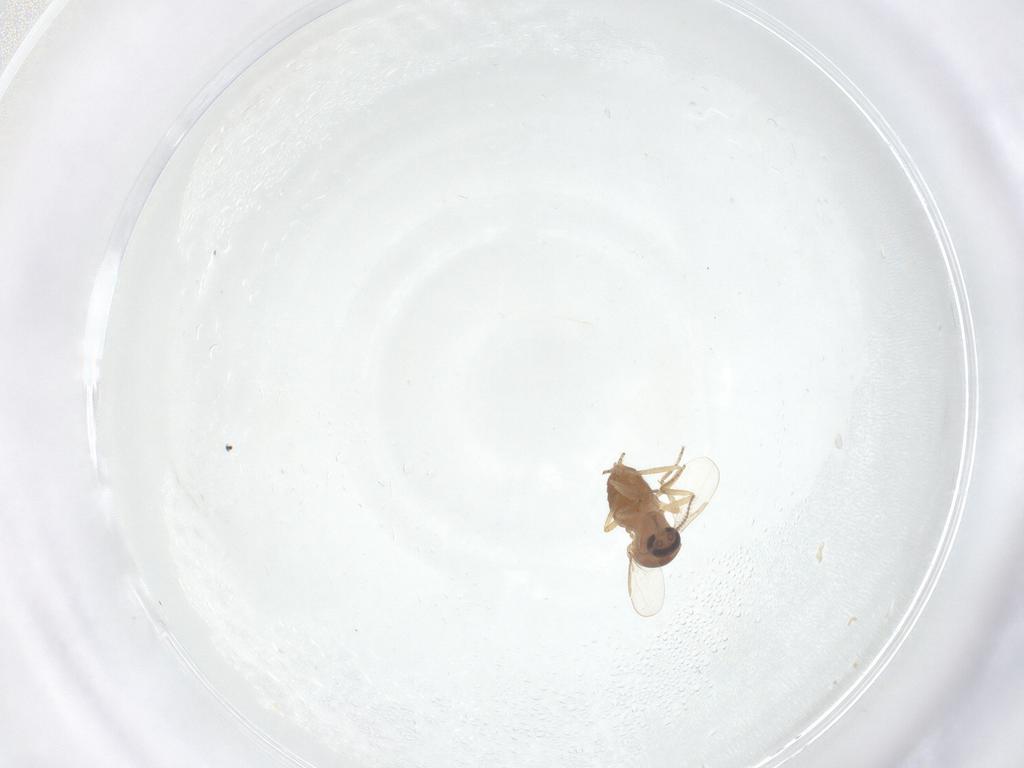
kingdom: Animalia
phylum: Arthropoda
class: Insecta
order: Diptera
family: Ceratopogonidae
